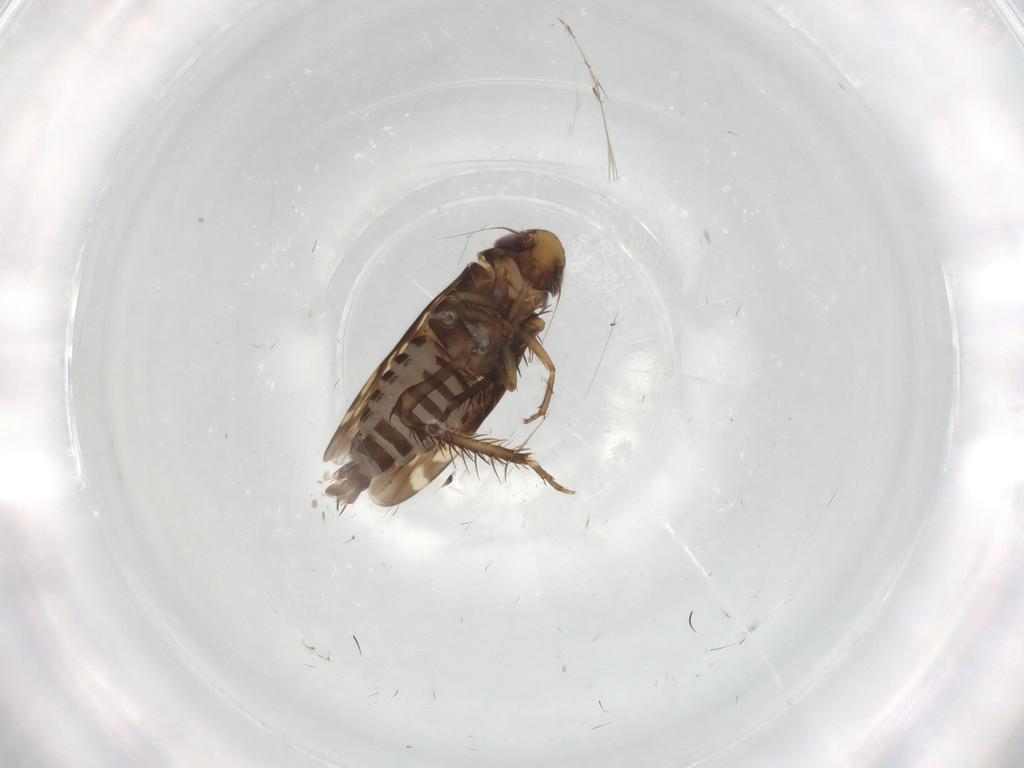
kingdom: Animalia
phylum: Arthropoda
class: Insecta
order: Hemiptera
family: Cicadellidae
